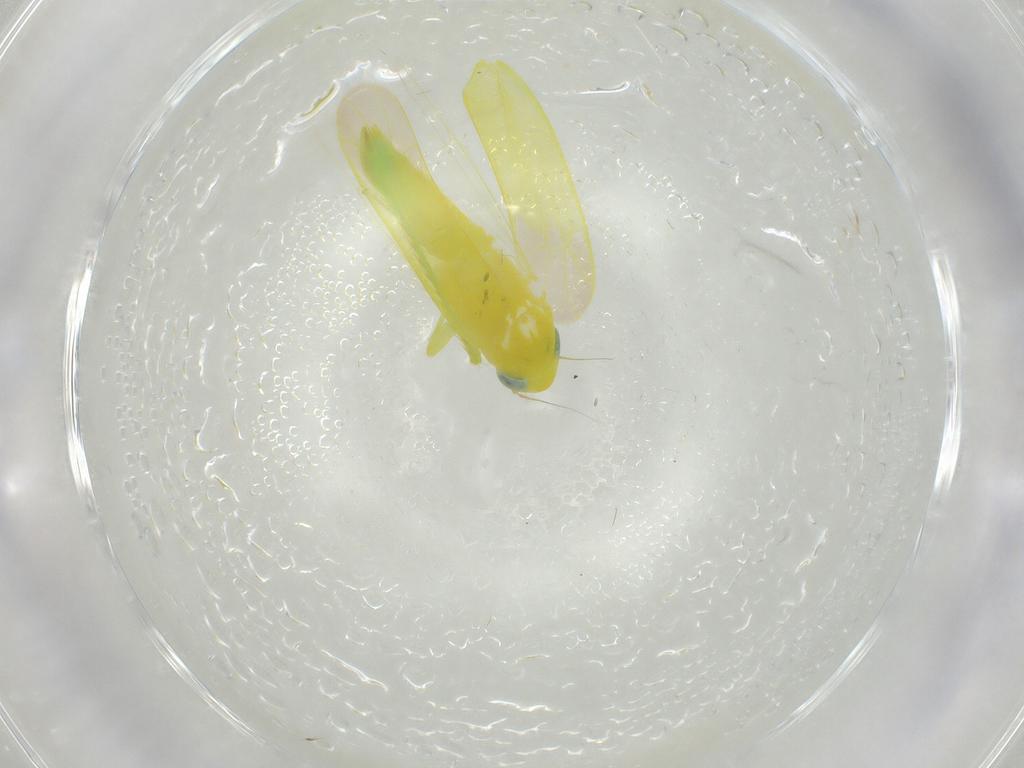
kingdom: Animalia
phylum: Arthropoda
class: Insecta
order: Hemiptera
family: Cicadellidae
